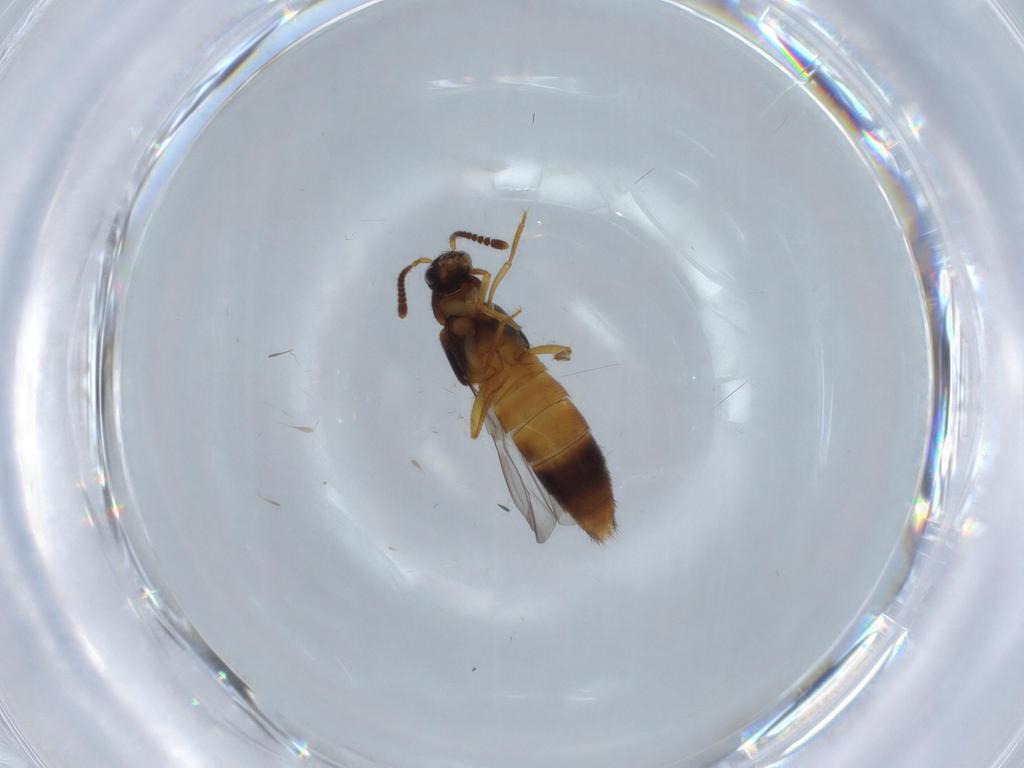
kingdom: Animalia
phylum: Arthropoda
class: Insecta
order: Coleoptera
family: Staphylinidae
